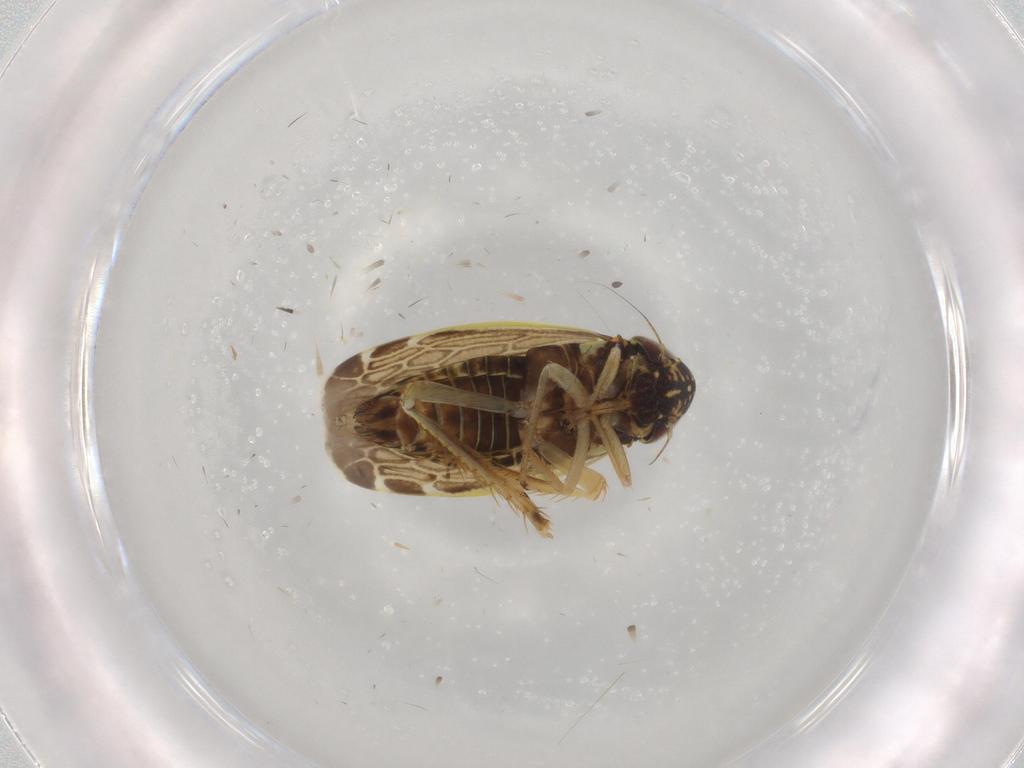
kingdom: Animalia
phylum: Arthropoda
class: Insecta
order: Hemiptera
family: Cicadellidae
